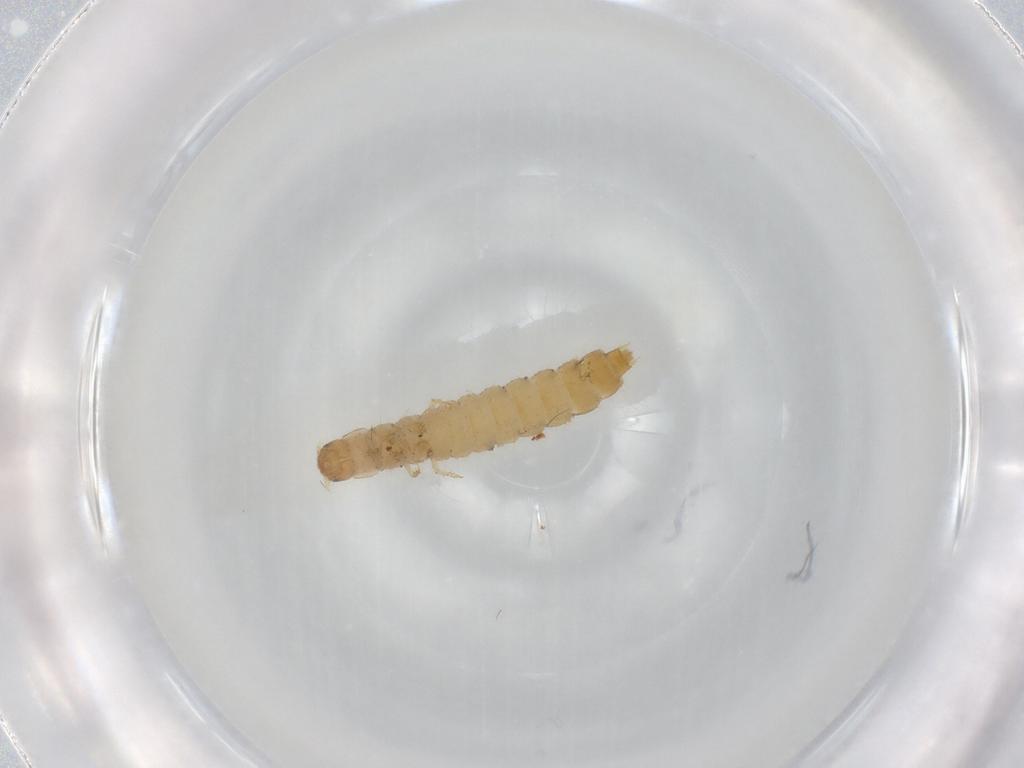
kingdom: Animalia
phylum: Arthropoda
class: Insecta
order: Coleoptera
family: Staphylinidae
